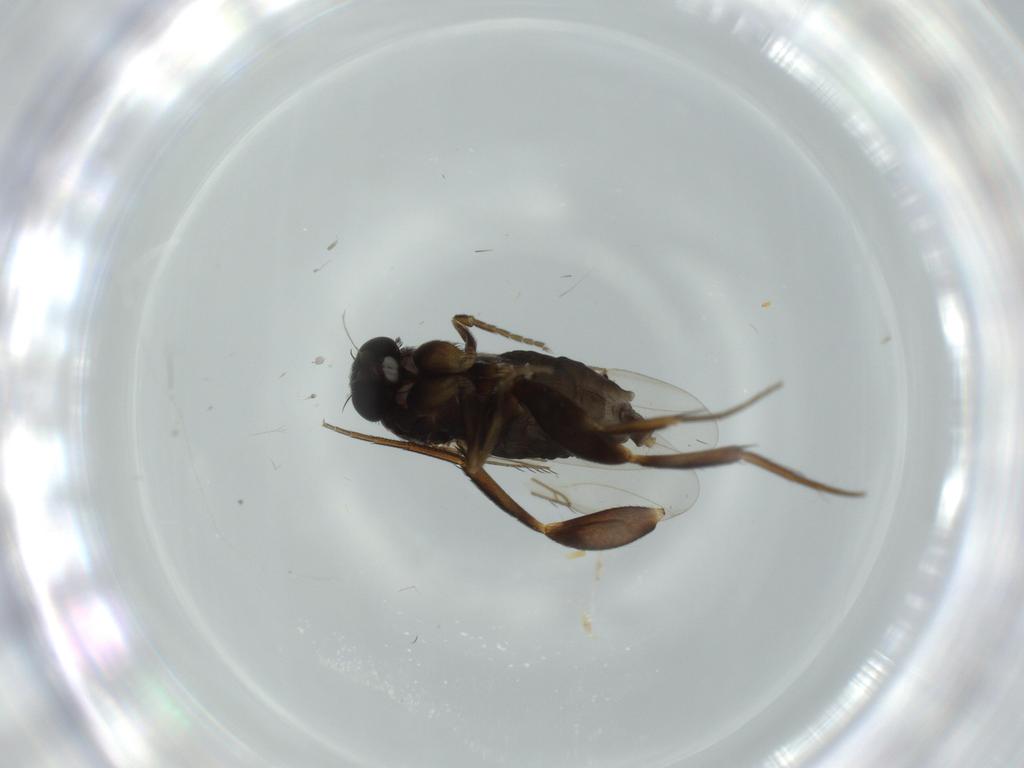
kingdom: Animalia
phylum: Arthropoda
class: Insecta
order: Diptera
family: Phoridae
